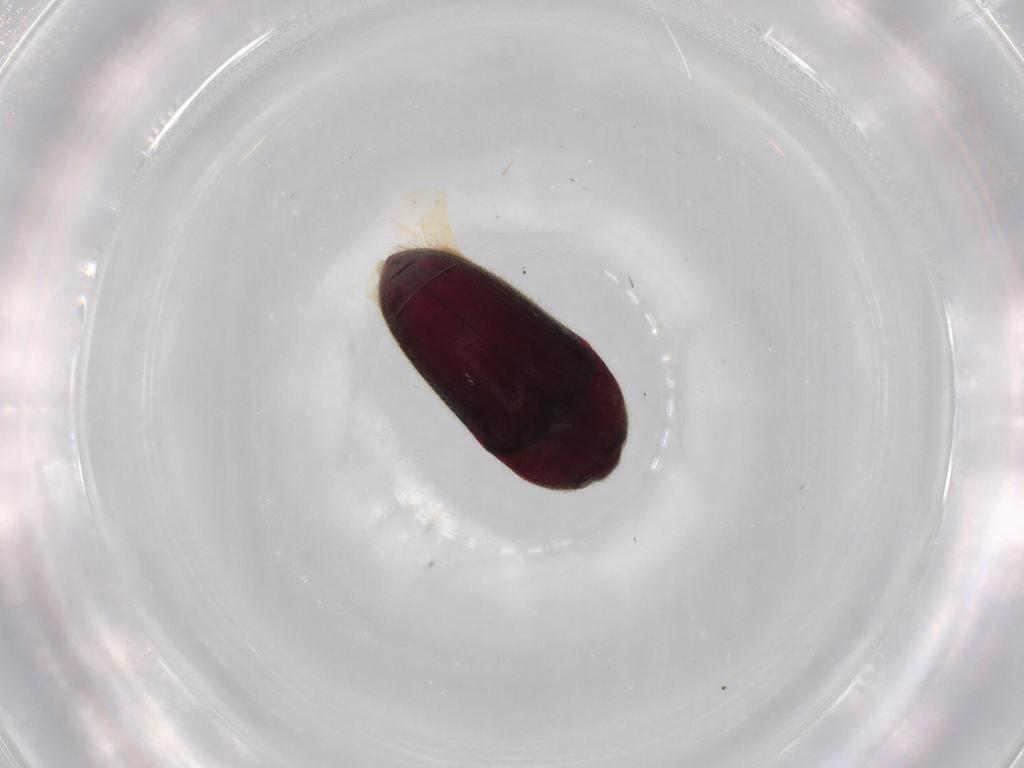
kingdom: Animalia
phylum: Arthropoda
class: Insecta
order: Coleoptera
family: Throscidae
